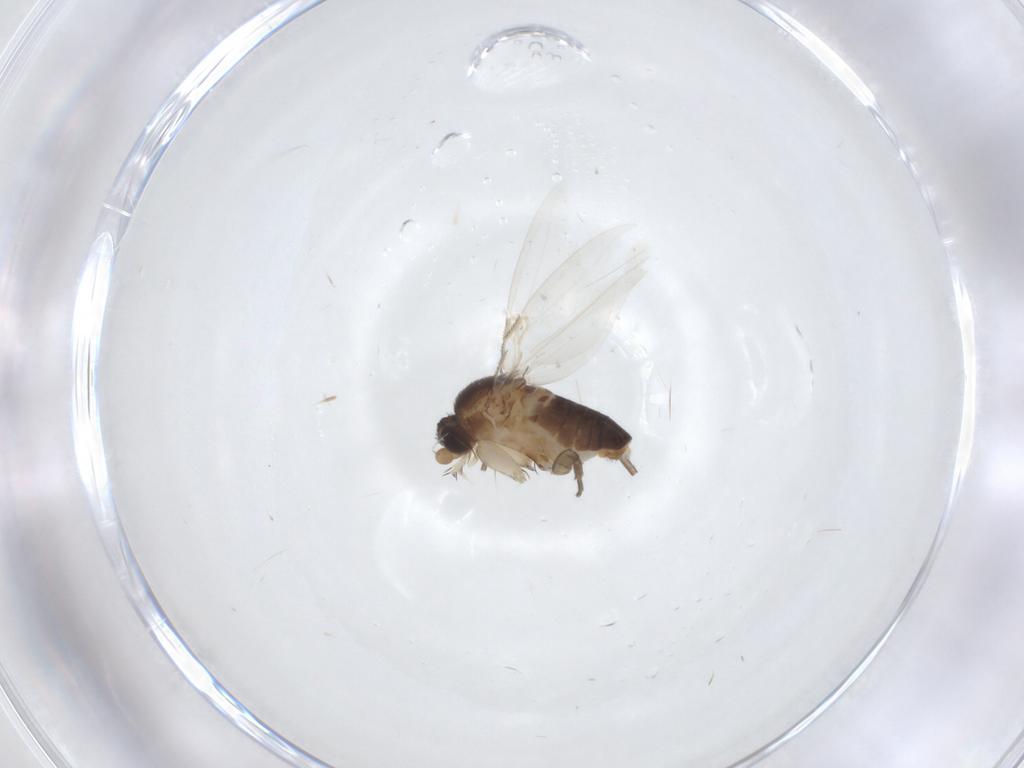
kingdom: Animalia
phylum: Arthropoda
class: Insecta
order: Diptera
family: Phoridae
